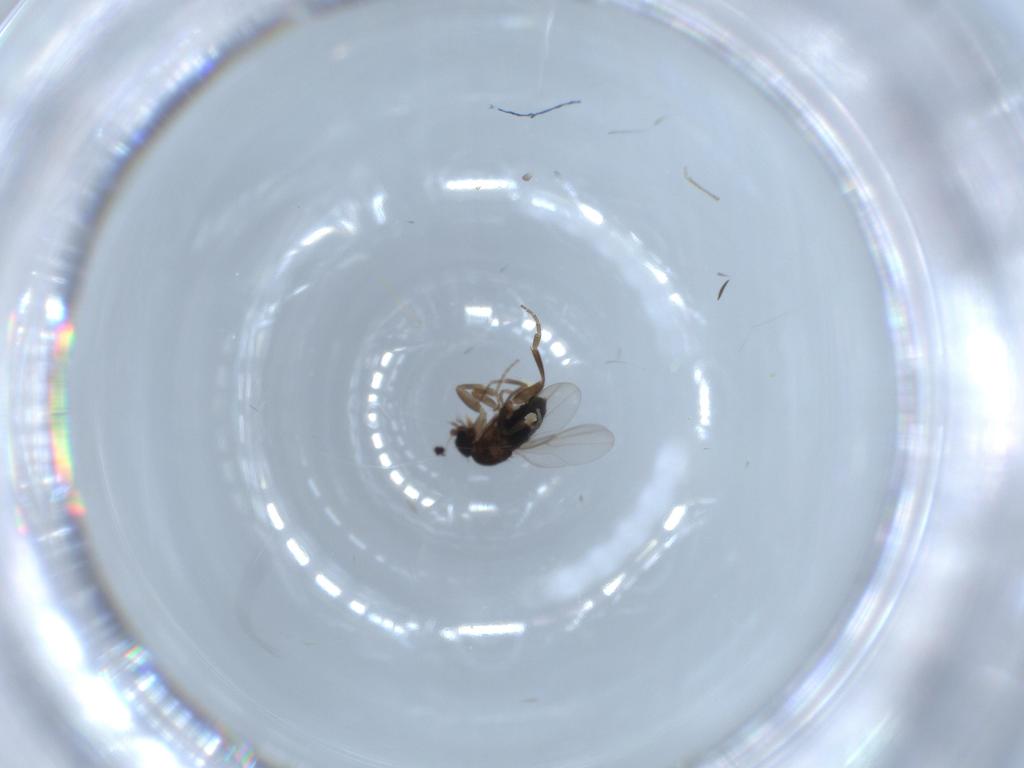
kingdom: Animalia
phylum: Arthropoda
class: Insecta
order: Diptera
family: Phoridae
